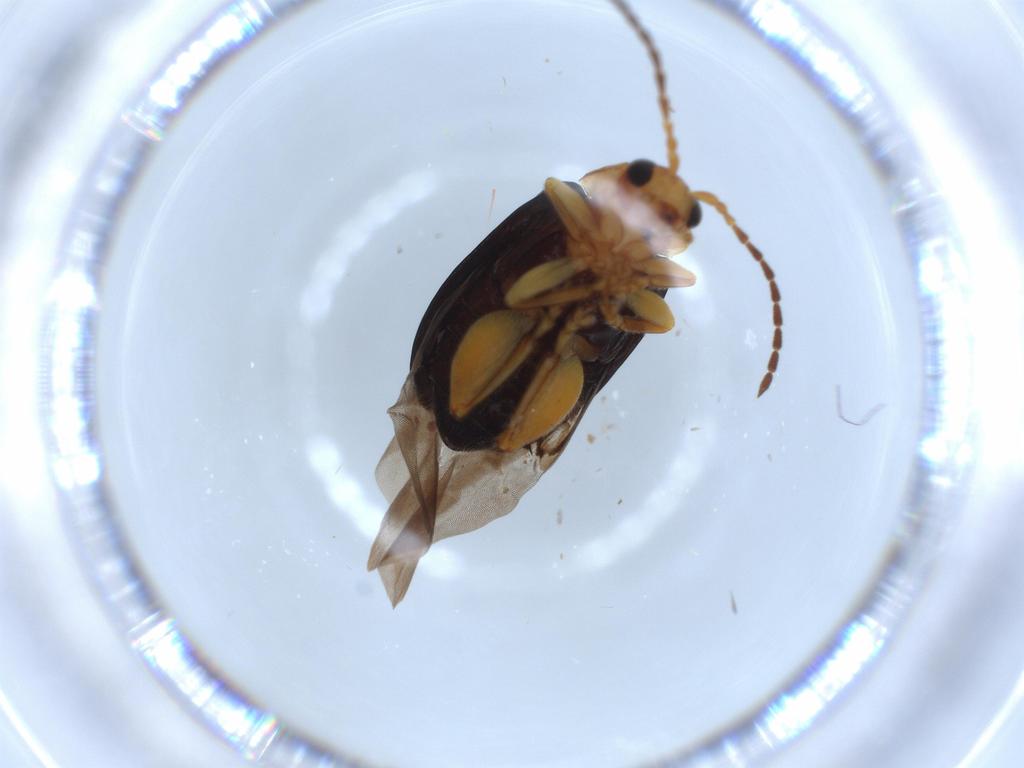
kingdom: Animalia
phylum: Arthropoda
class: Insecta
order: Coleoptera
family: Chrysomelidae
